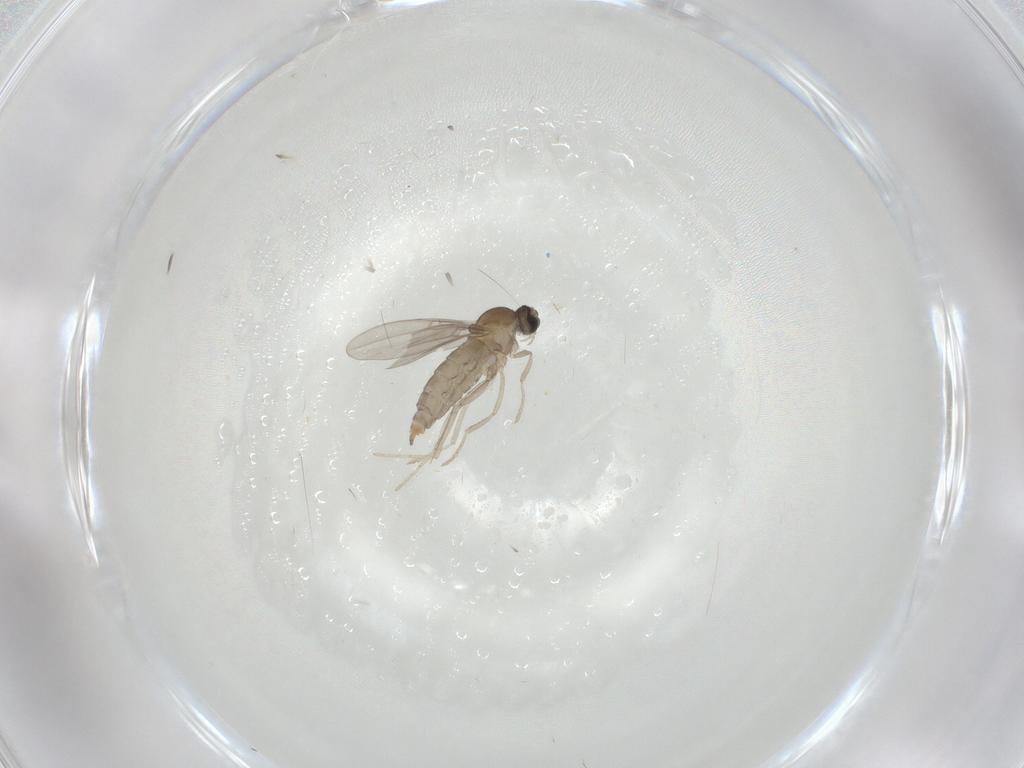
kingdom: Animalia
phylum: Arthropoda
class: Insecta
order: Diptera
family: Cecidomyiidae
